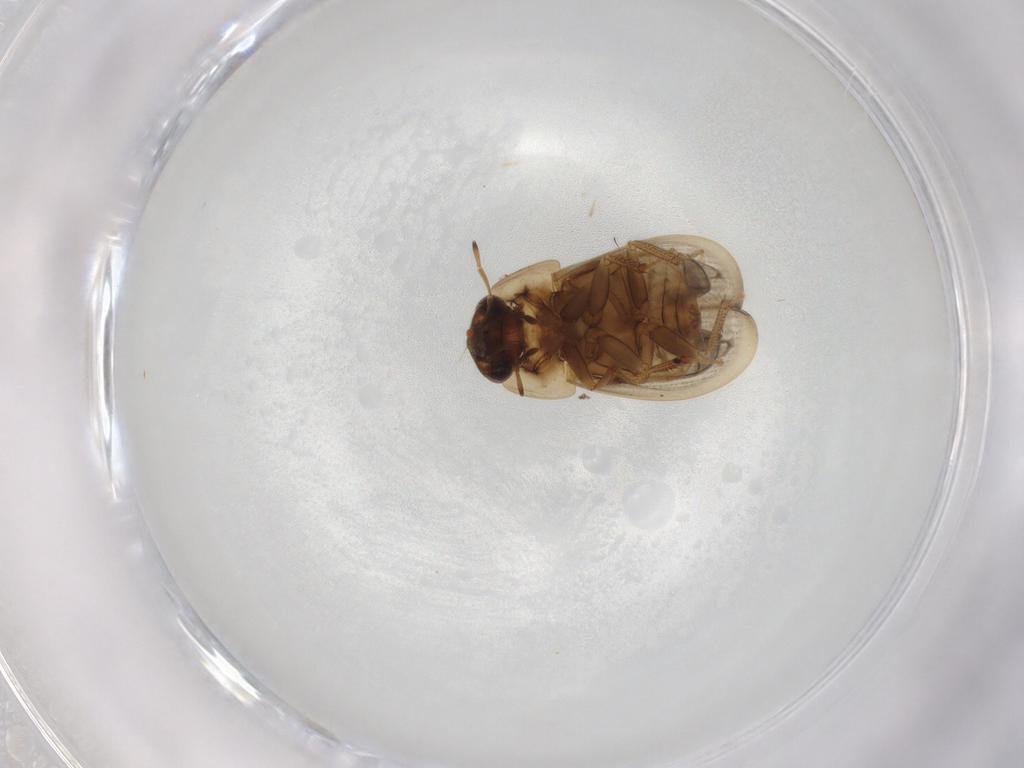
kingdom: Animalia
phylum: Arthropoda
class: Insecta
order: Coleoptera
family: Hydrophilidae
